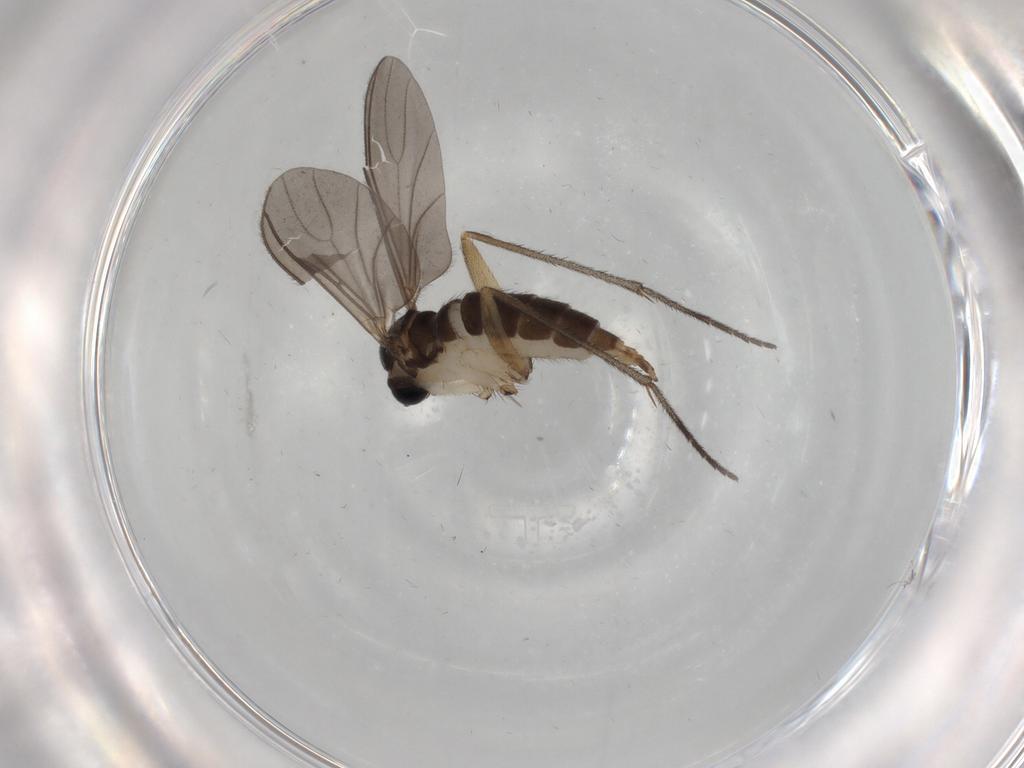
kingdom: Animalia
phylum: Arthropoda
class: Insecta
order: Diptera
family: Sciaridae
